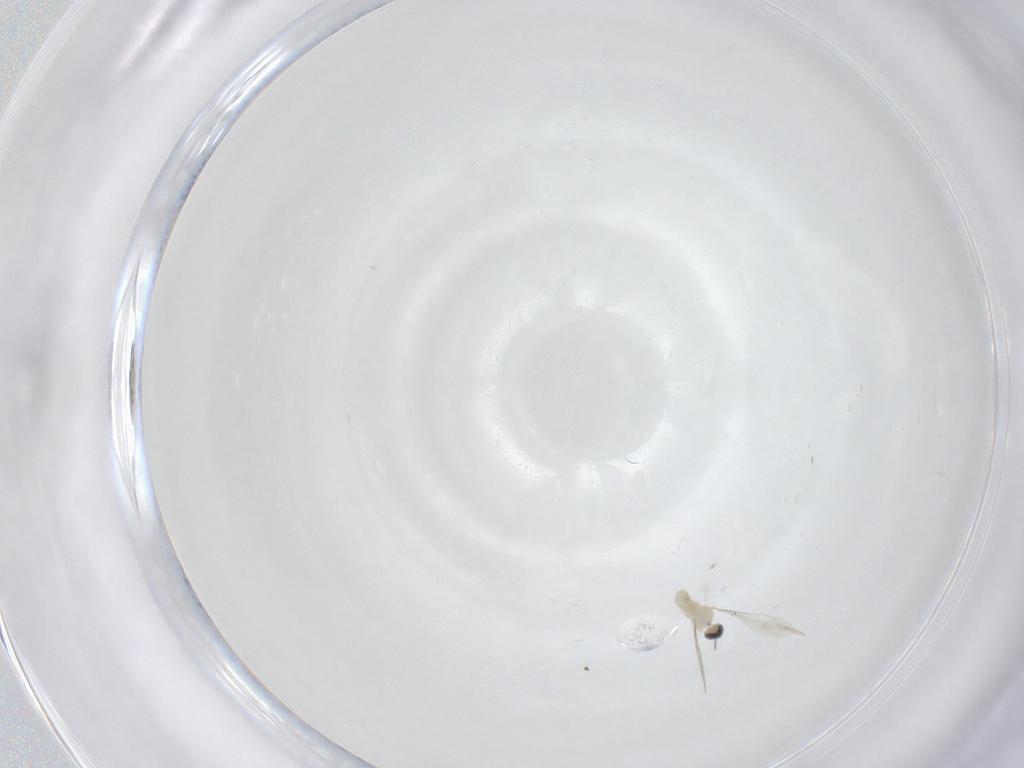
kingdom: Animalia
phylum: Arthropoda
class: Insecta
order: Diptera
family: Cecidomyiidae
